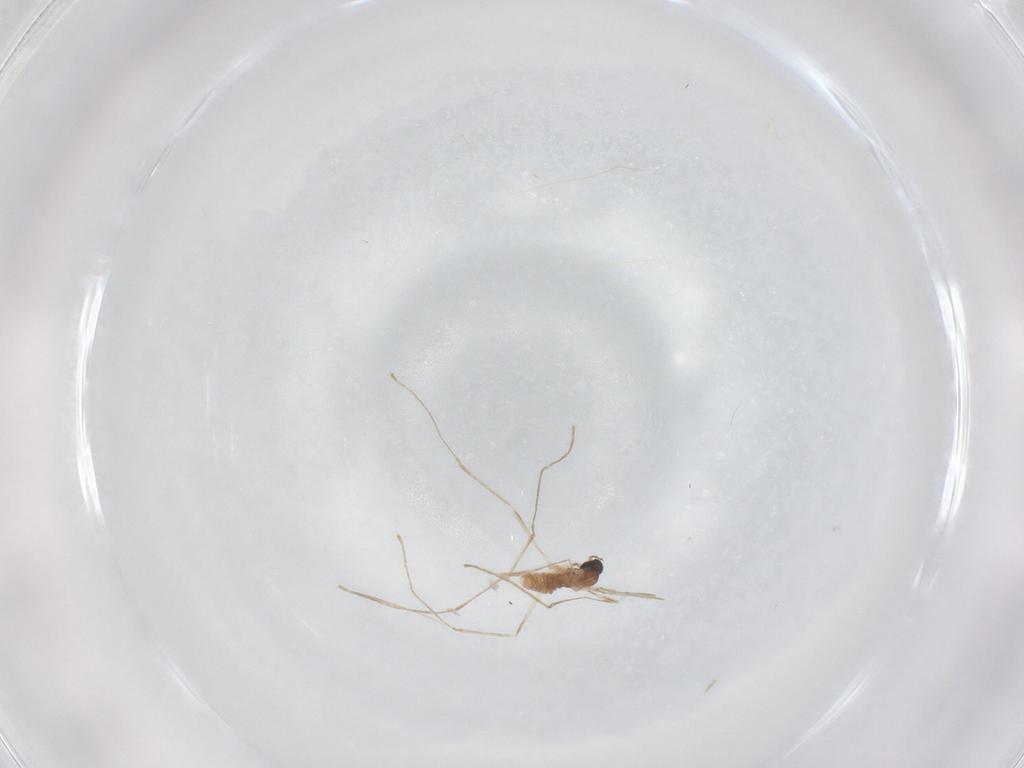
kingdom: Animalia
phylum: Arthropoda
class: Insecta
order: Diptera
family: Cecidomyiidae
